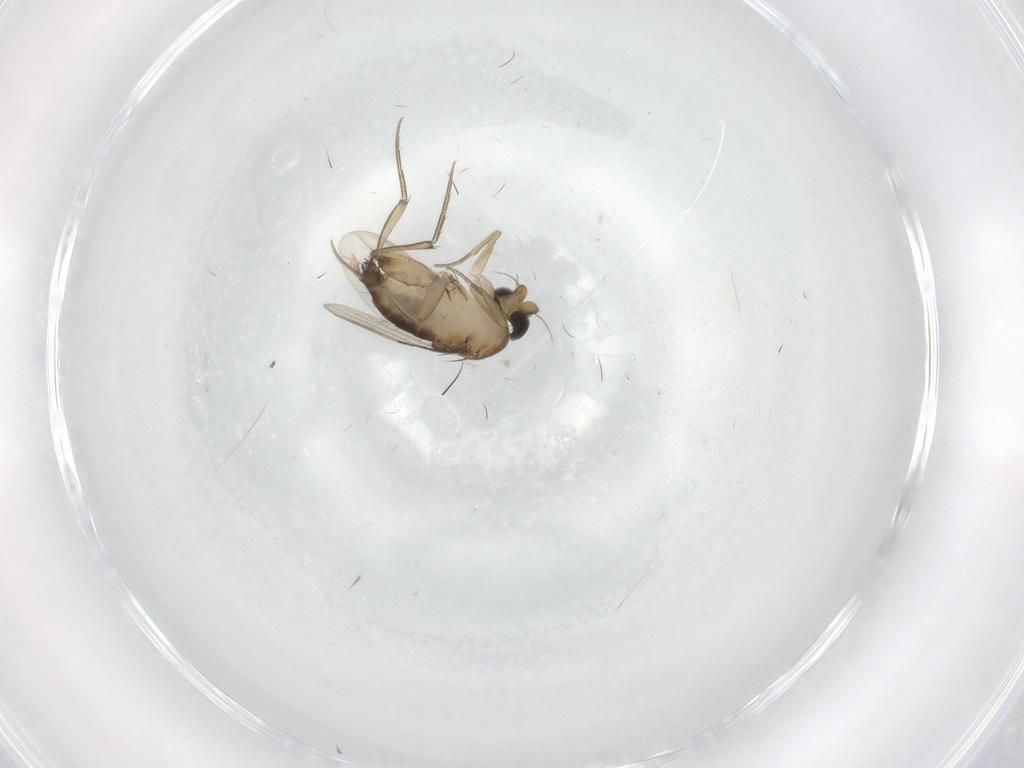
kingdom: Animalia
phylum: Arthropoda
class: Insecta
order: Diptera
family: Phoridae
